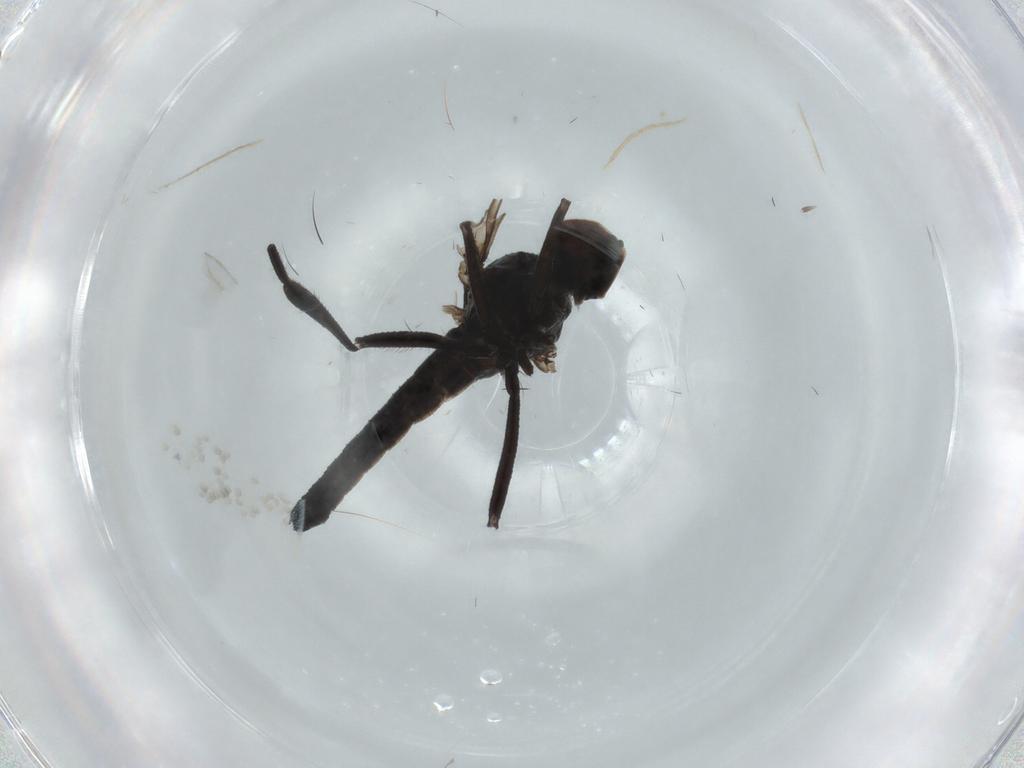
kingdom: Animalia
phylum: Arthropoda
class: Insecta
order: Diptera
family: Hybotidae
